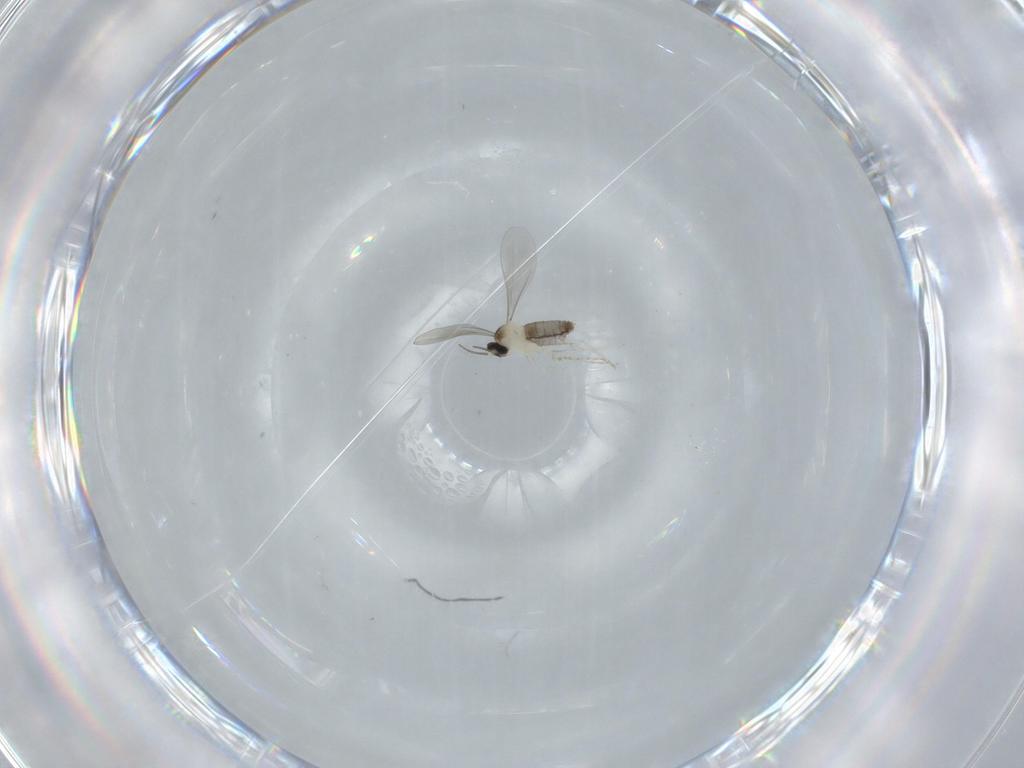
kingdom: Animalia
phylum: Arthropoda
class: Insecta
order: Diptera
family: Cecidomyiidae
